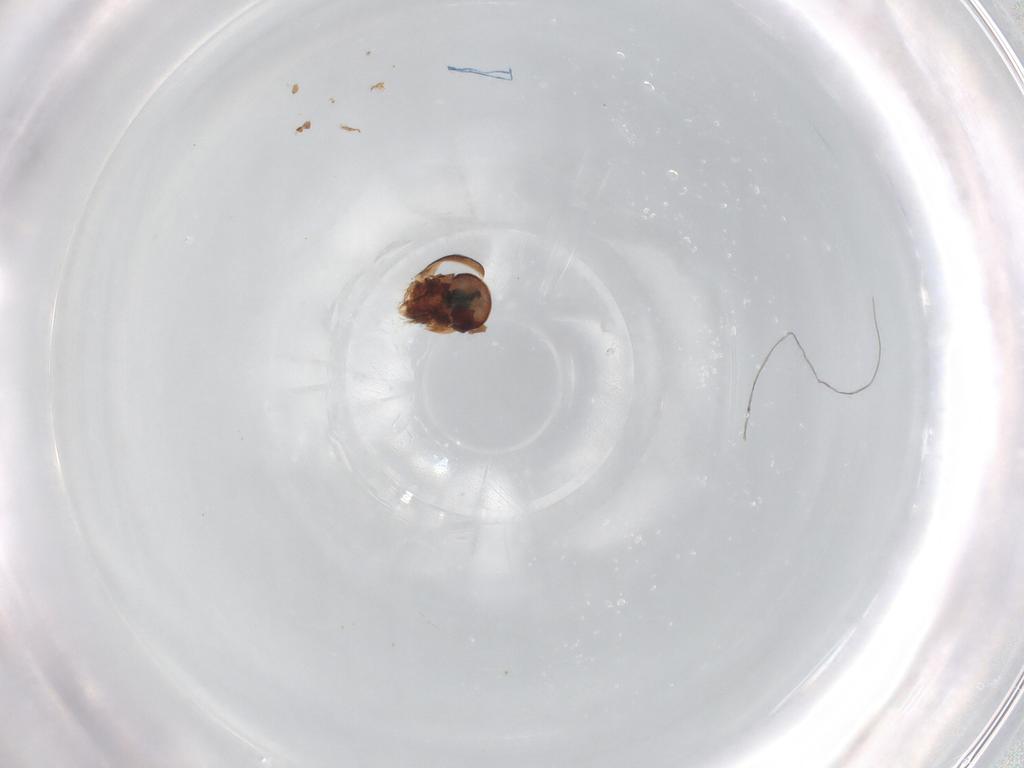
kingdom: Animalia
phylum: Arthropoda
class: Arachnida
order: Sarcoptiformes
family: Humerobatidae
